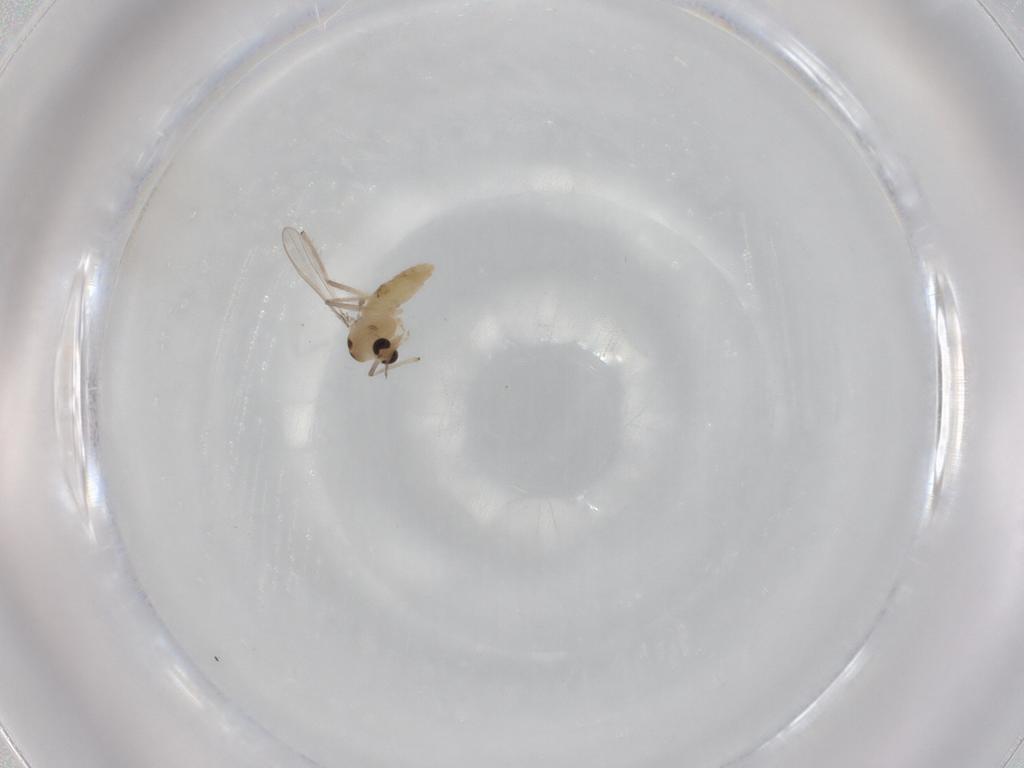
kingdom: Animalia
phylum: Arthropoda
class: Insecta
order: Diptera
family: Chironomidae
